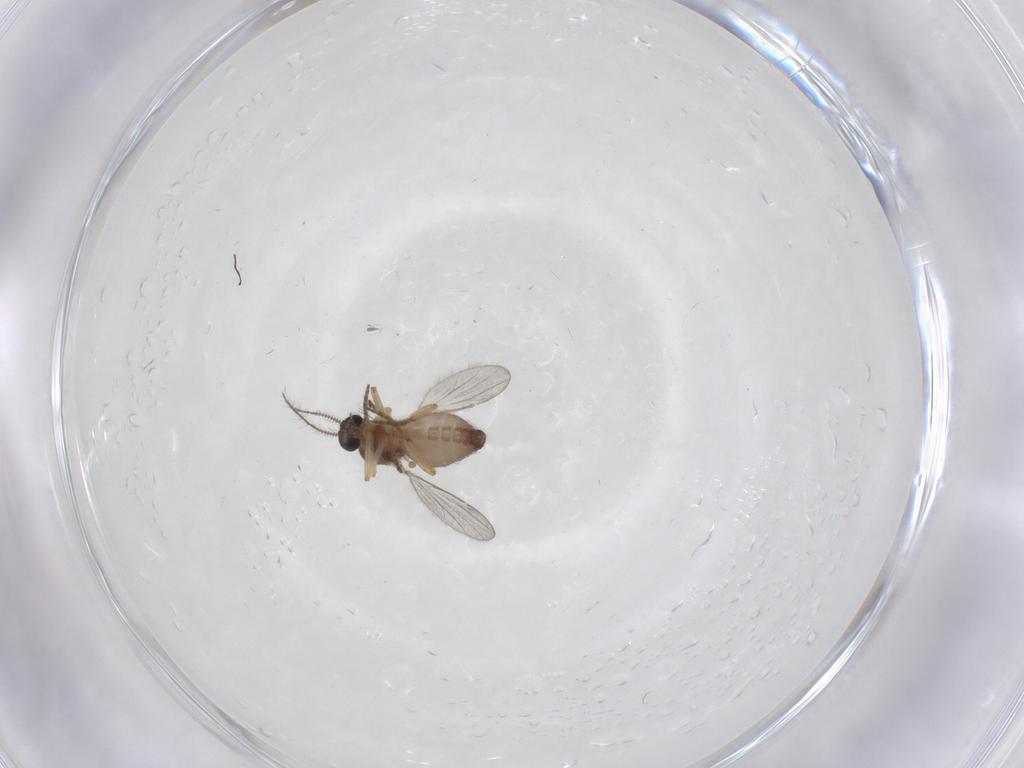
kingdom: Animalia
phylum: Arthropoda
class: Insecta
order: Diptera
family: Ceratopogonidae
